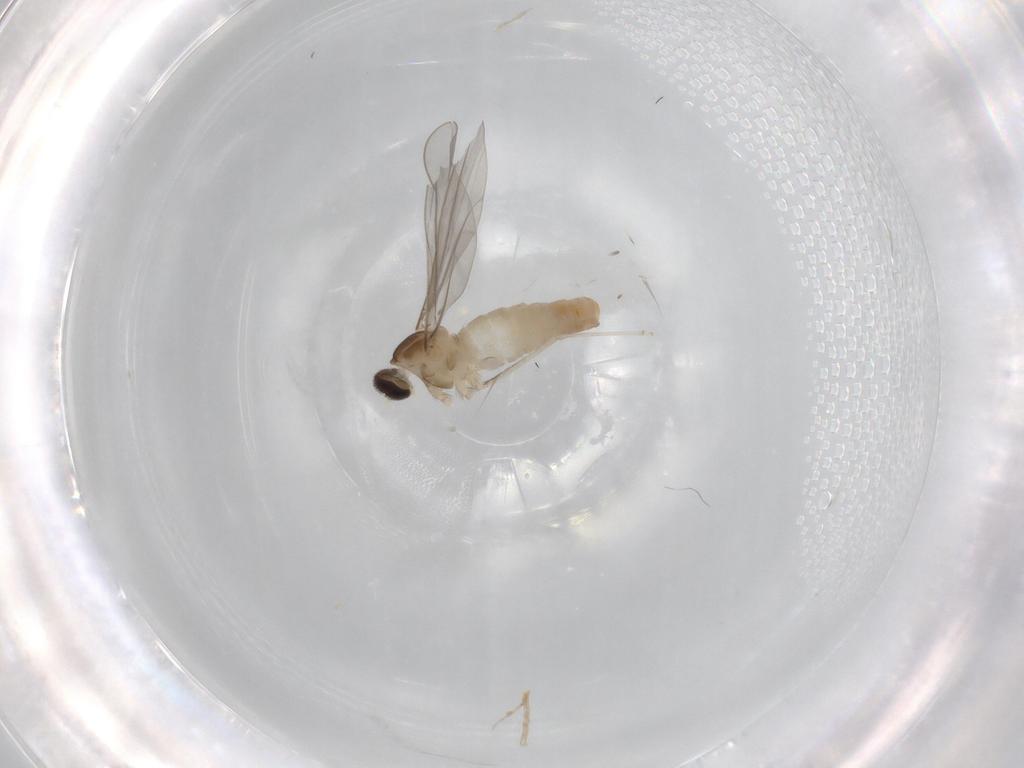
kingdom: Animalia
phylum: Arthropoda
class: Insecta
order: Diptera
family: Cecidomyiidae
